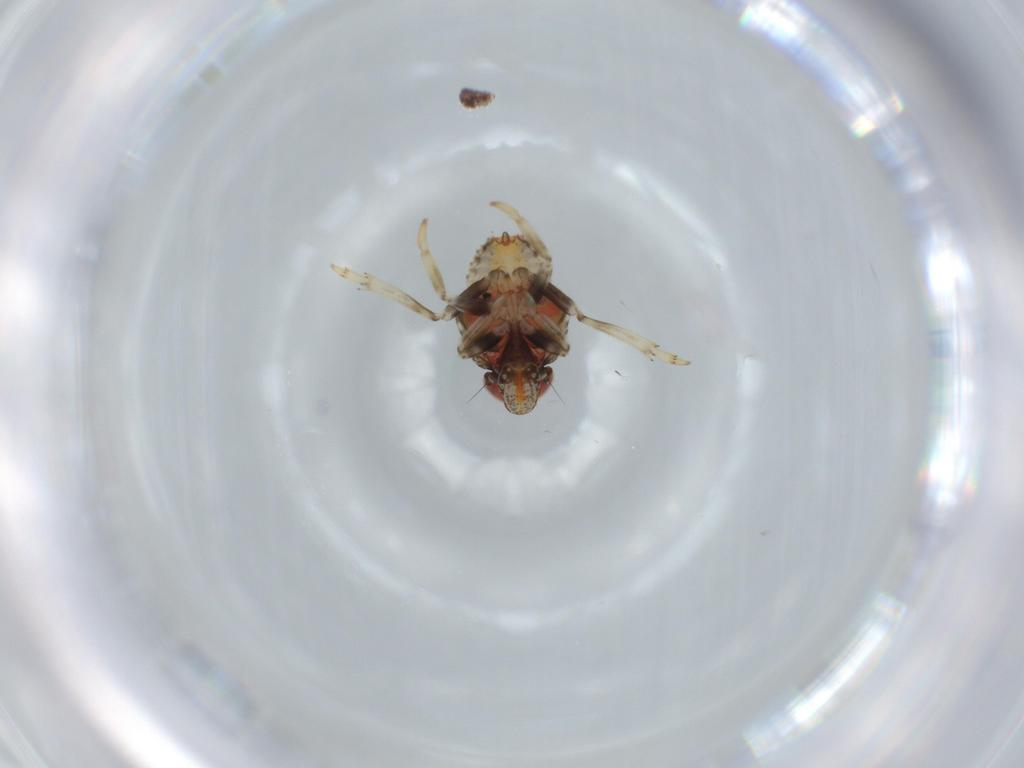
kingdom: Animalia
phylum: Arthropoda
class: Insecta
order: Hemiptera
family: Issidae
